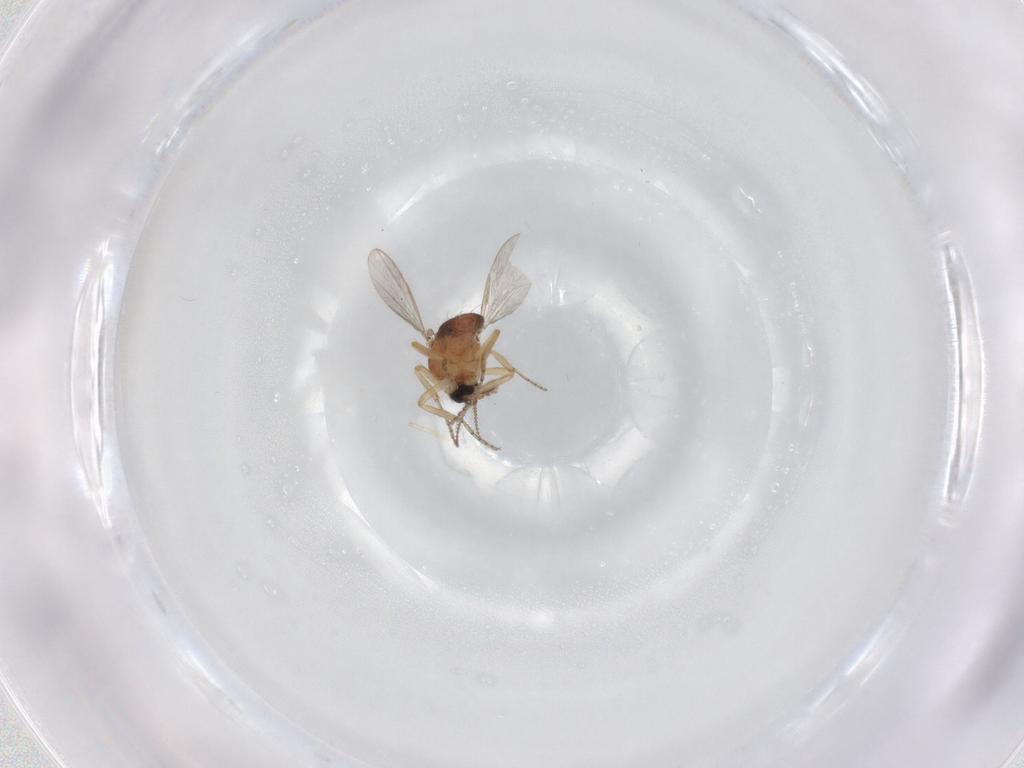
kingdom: Animalia
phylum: Arthropoda
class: Insecta
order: Diptera
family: Ceratopogonidae
